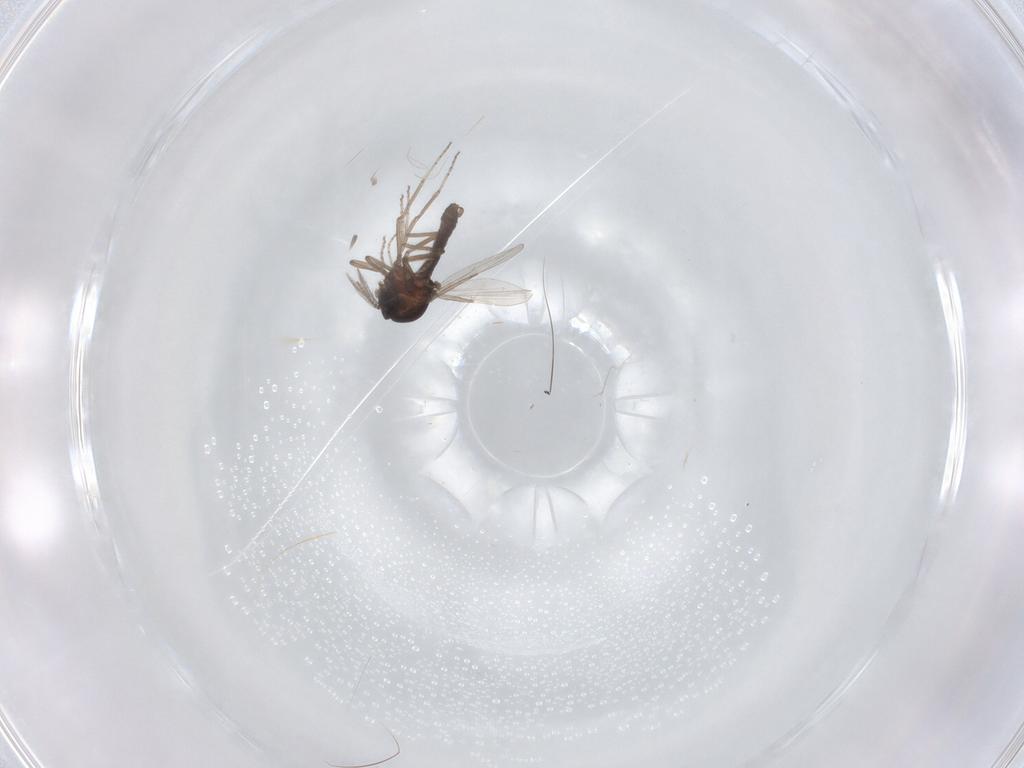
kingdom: Animalia
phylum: Arthropoda
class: Insecta
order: Diptera
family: Ceratopogonidae
